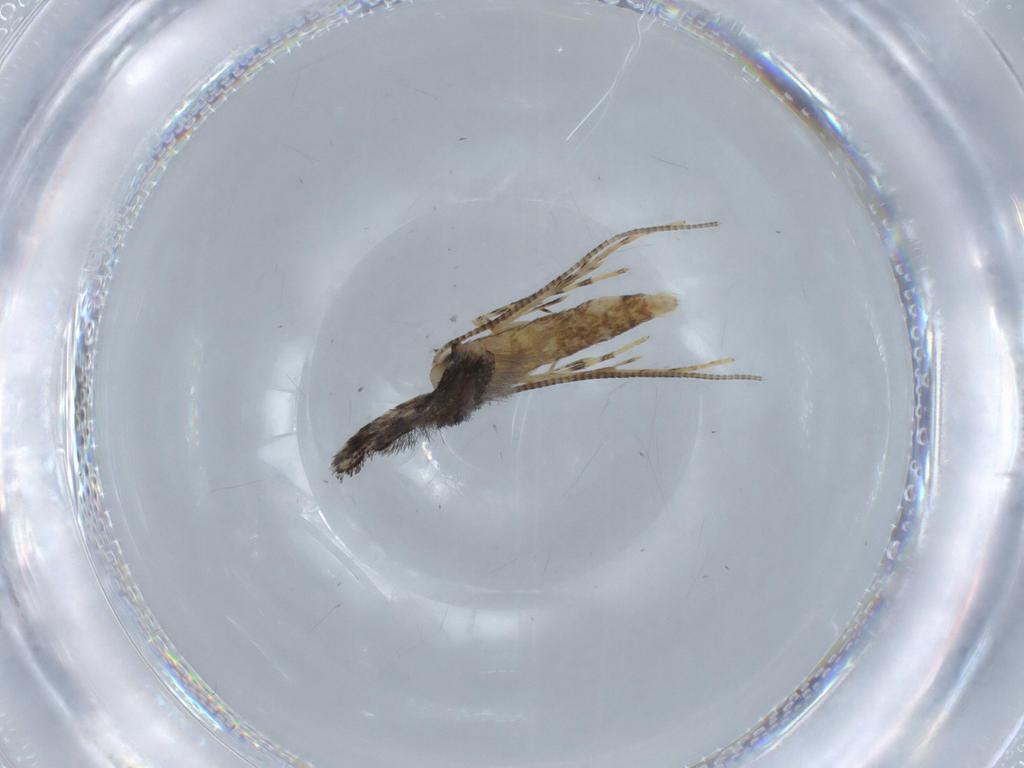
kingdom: Animalia
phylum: Arthropoda
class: Insecta
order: Lepidoptera
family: Gracillariidae
